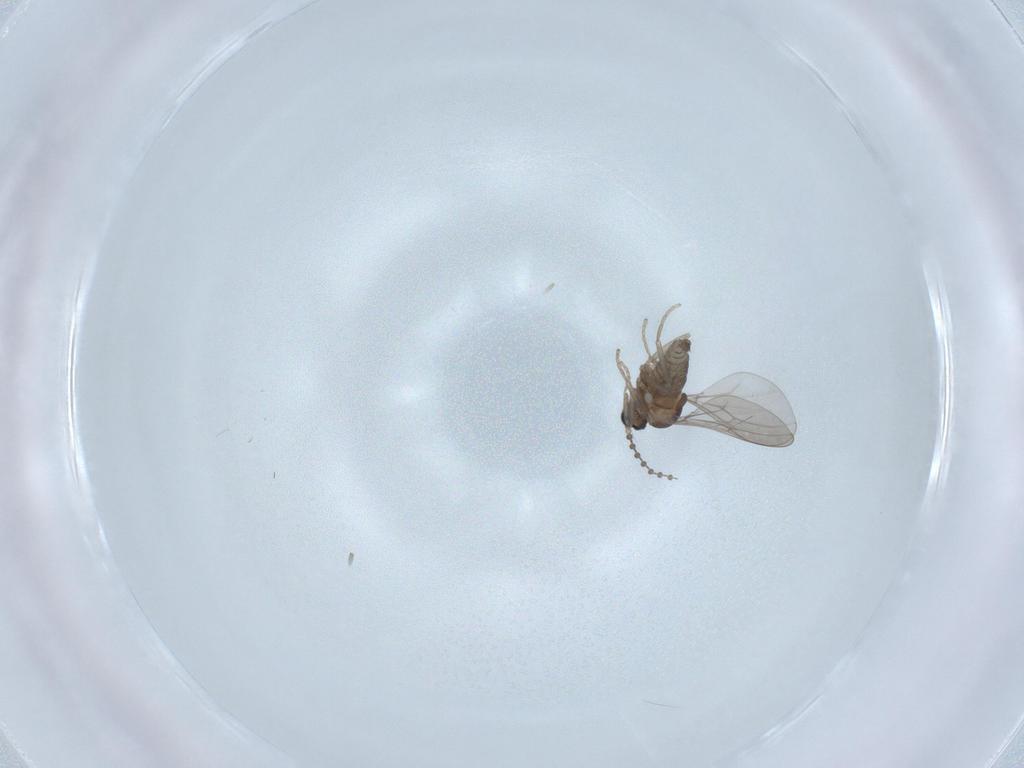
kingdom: Animalia
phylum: Arthropoda
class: Insecta
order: Diptera
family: Cecidomyiidae
